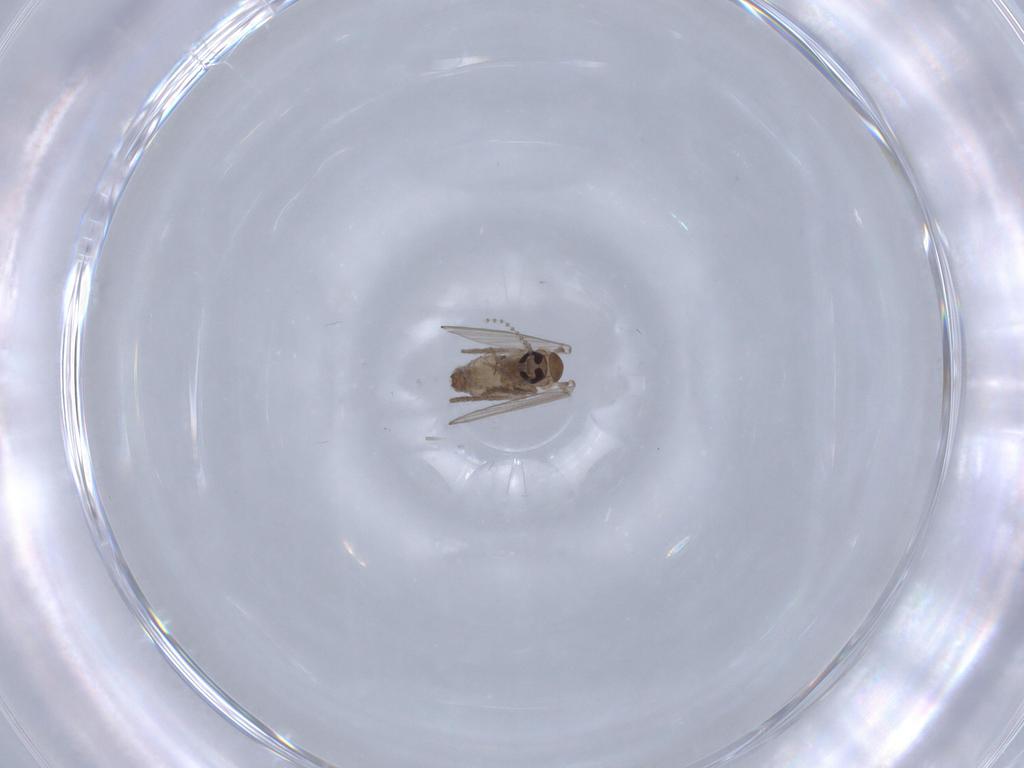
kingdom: Animalia
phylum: Arthropoda
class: Insecta
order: Diptera
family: Psychodidae
